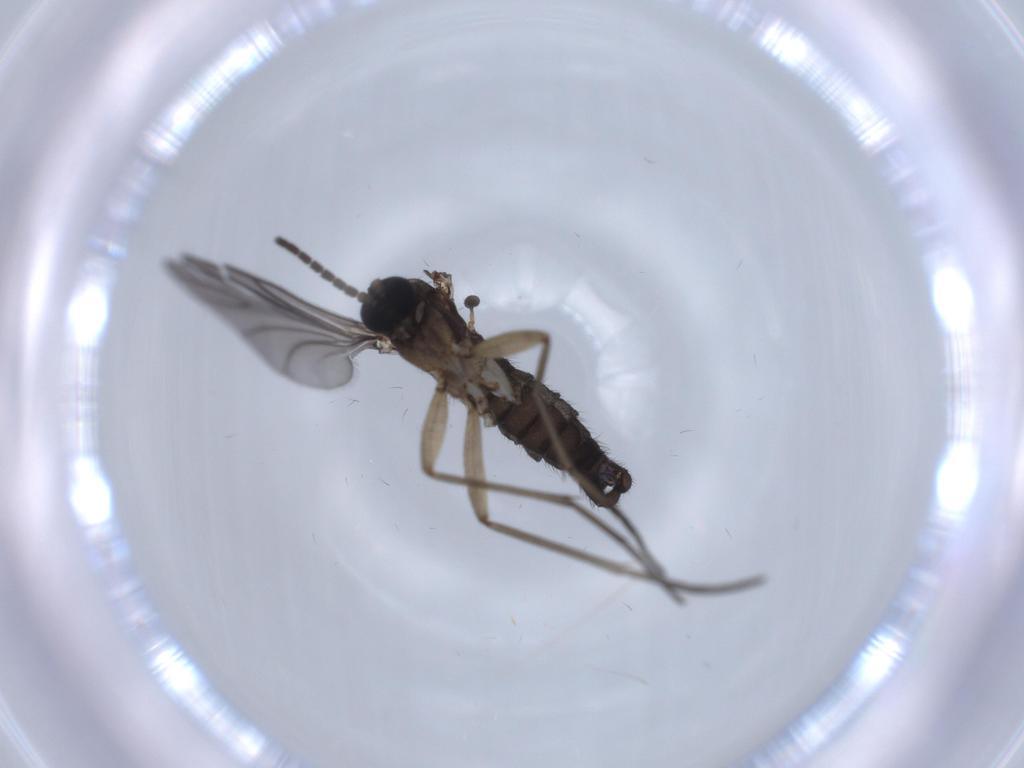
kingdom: Animalia
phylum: Arthropoda
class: Insecta
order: Diptera
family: Sciaridae
